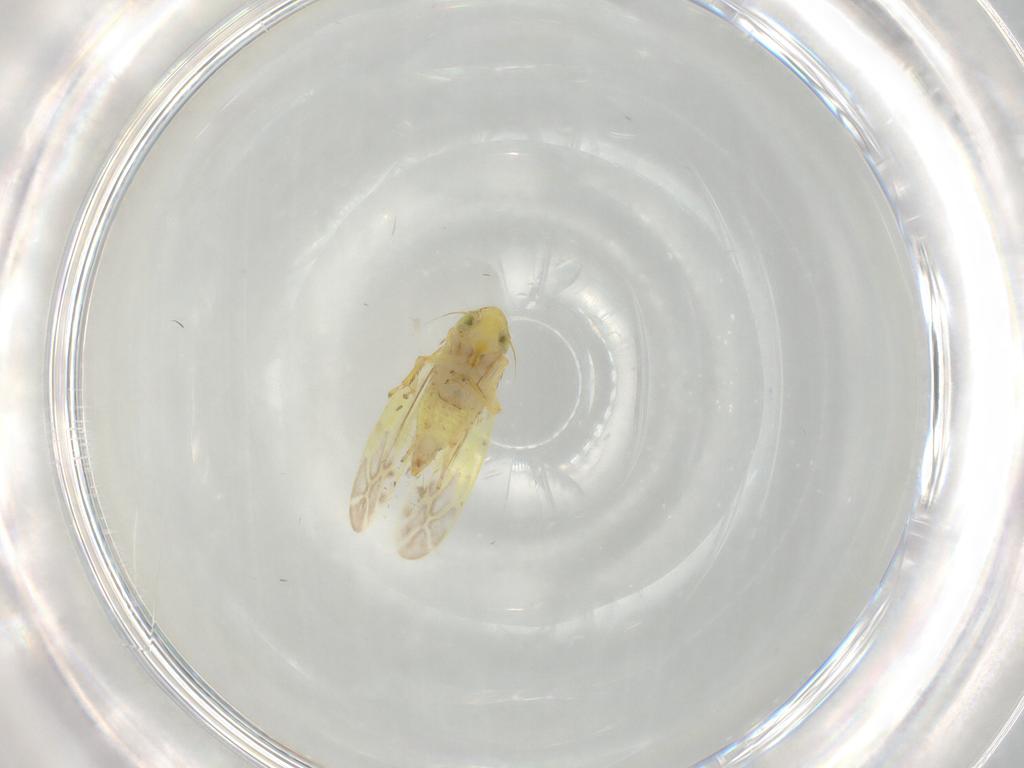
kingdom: Animalia
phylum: Arthropoda
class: Insecta
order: Hemiptera
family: Cicadellidae
